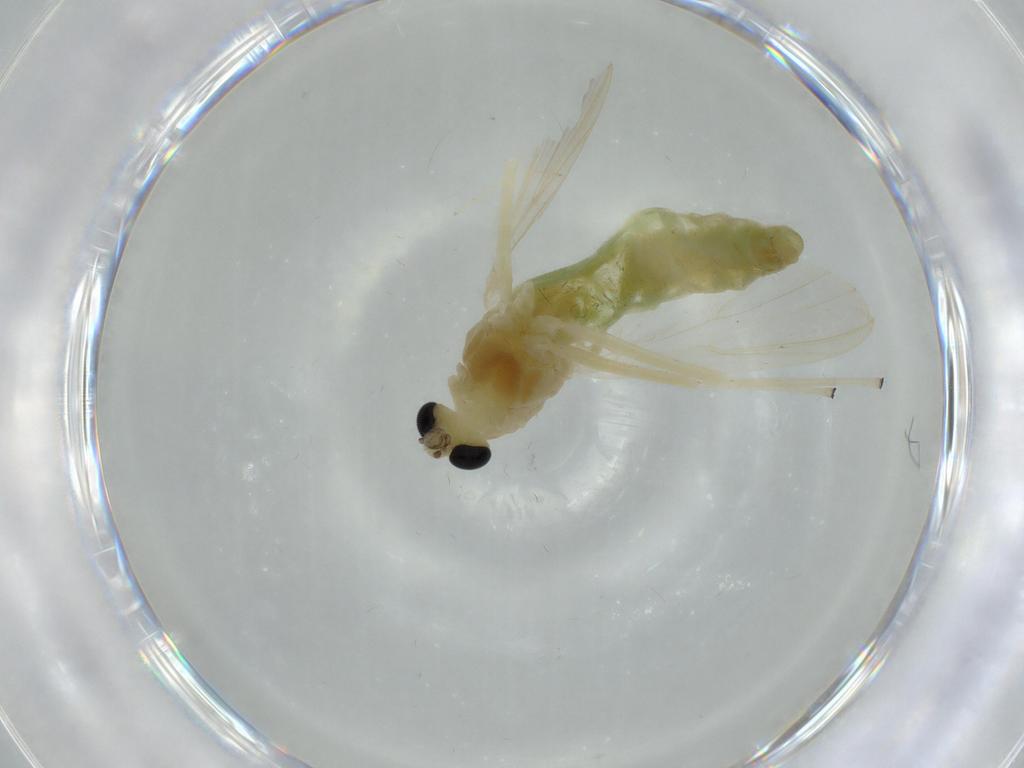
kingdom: Animalia
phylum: Arthropoda
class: Insecta
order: Diptera
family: Chironomidae
